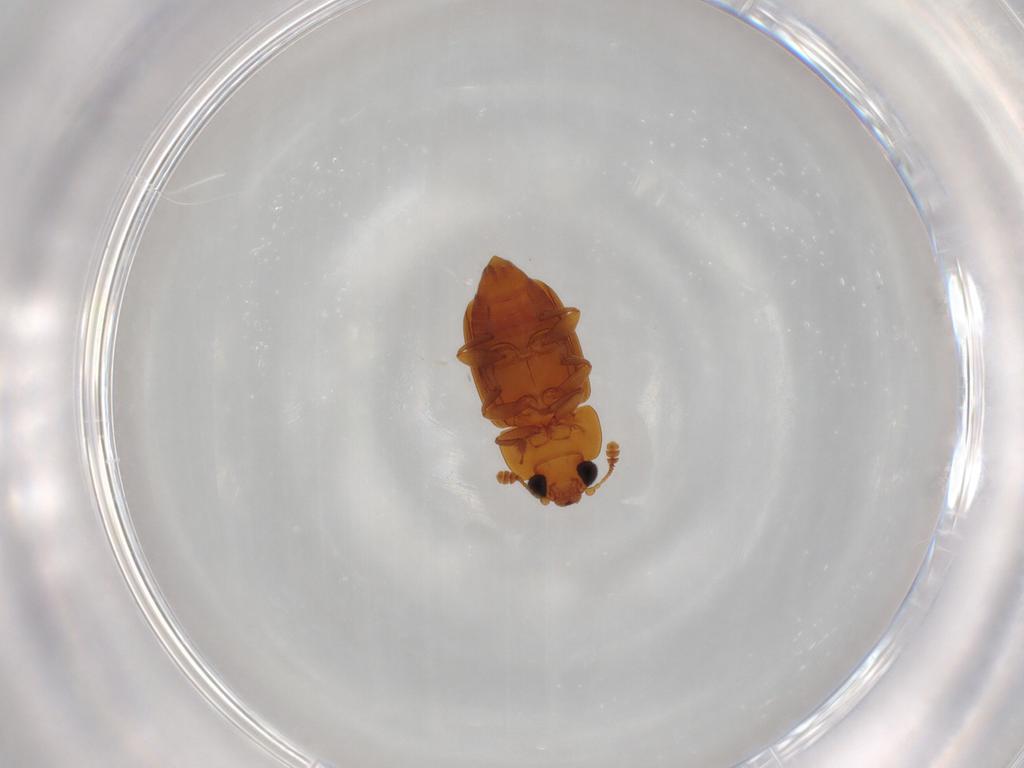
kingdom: Animalia
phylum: Arthropoda
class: Insecta
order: Coleoptera
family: Nitidulidae
